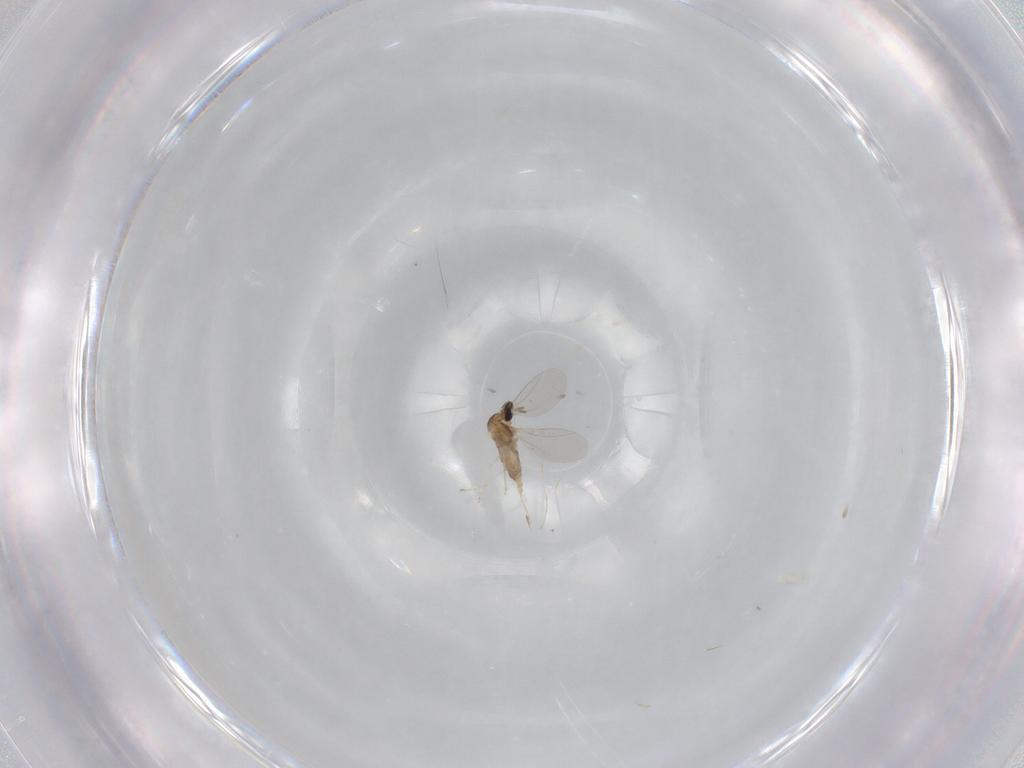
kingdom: Animalia
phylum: Arthropoda
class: Insecta
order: Diptera
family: Cecidomyiidae
